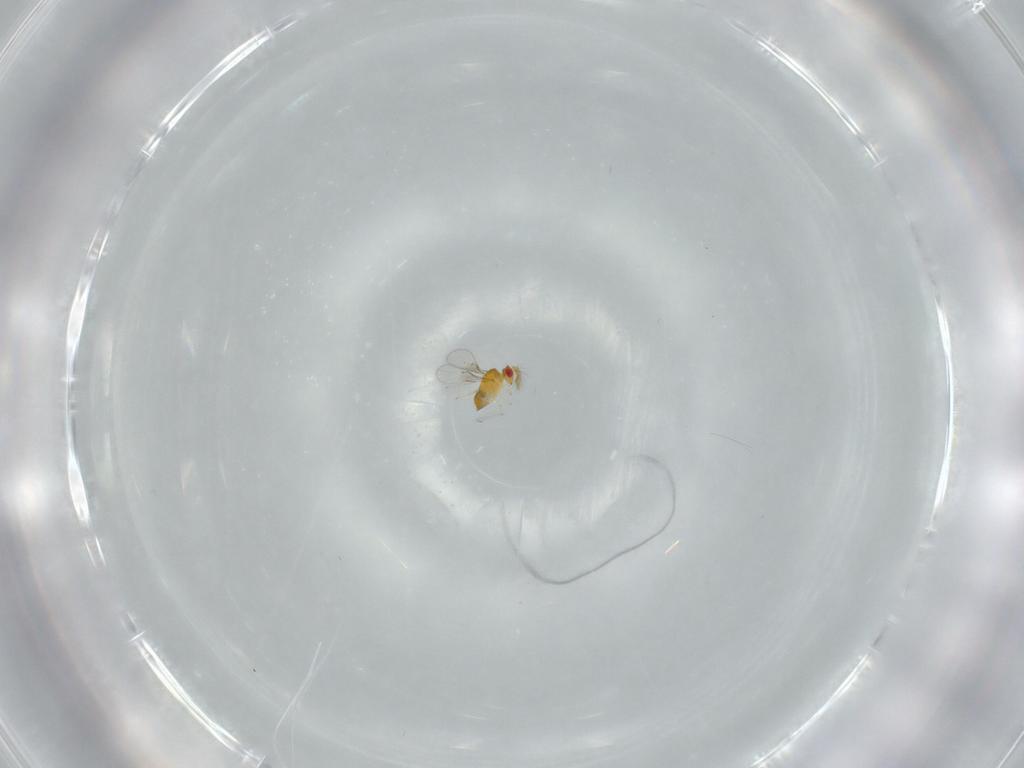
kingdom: Animalia
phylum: Arthropoda
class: Insecta
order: Hymenoptera
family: Trichogrammatidae
